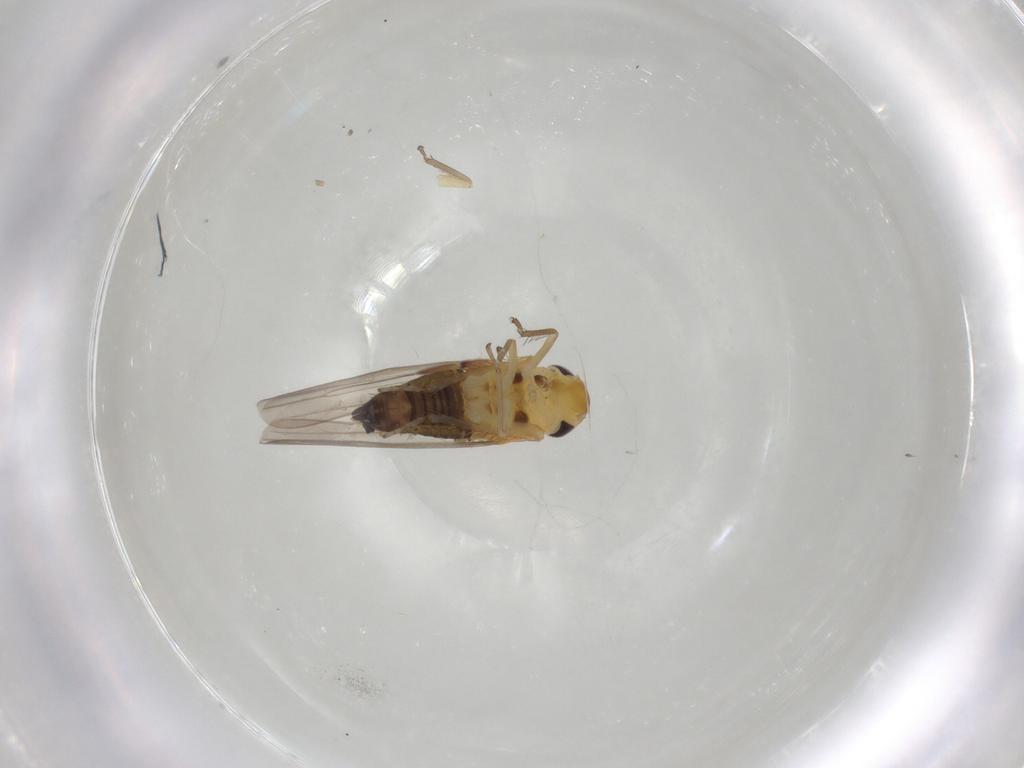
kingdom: Animalia
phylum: Arthropoda
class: Insecta
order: Hemiptera
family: Cicadellidae
